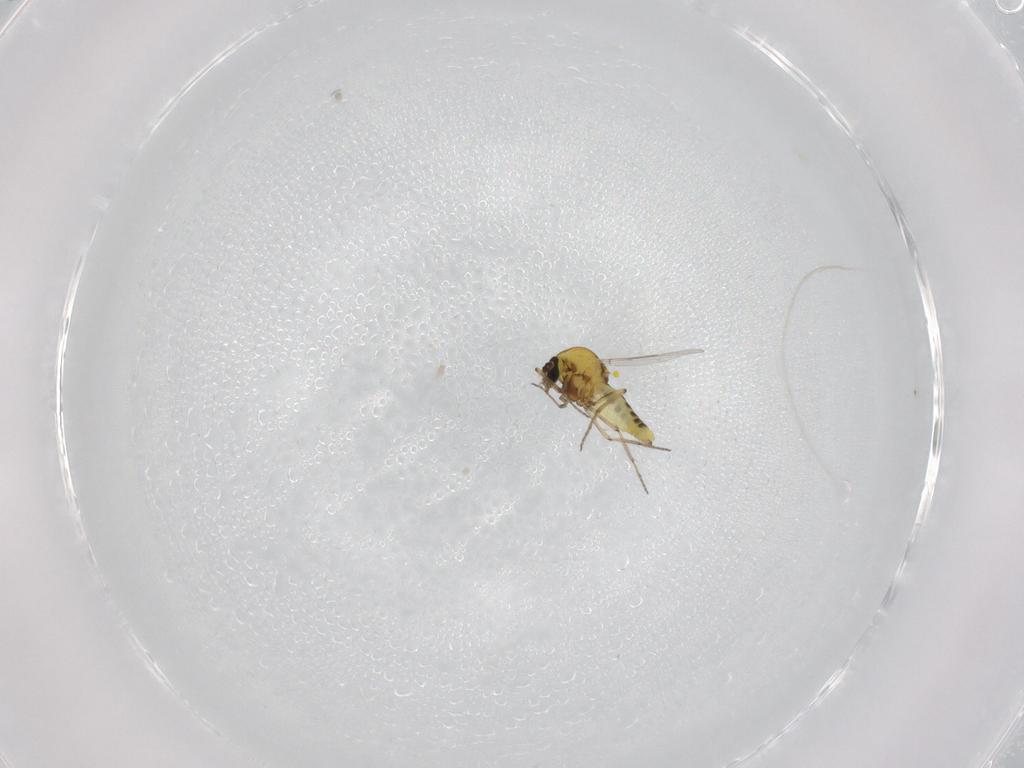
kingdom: Animalia
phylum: Arthropoda
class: Insecta
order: Diptera
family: Ceratopogonidae
